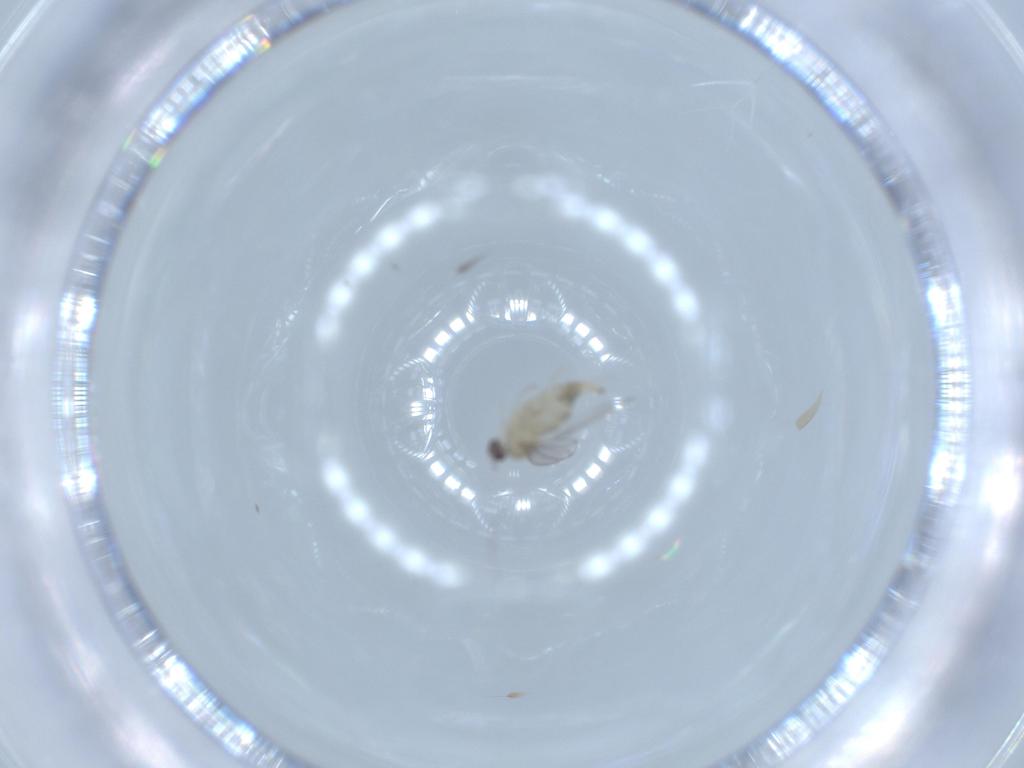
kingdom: Animalia
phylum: Arthropoda
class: Insecta
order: Diptera
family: Cecidomyiidae
